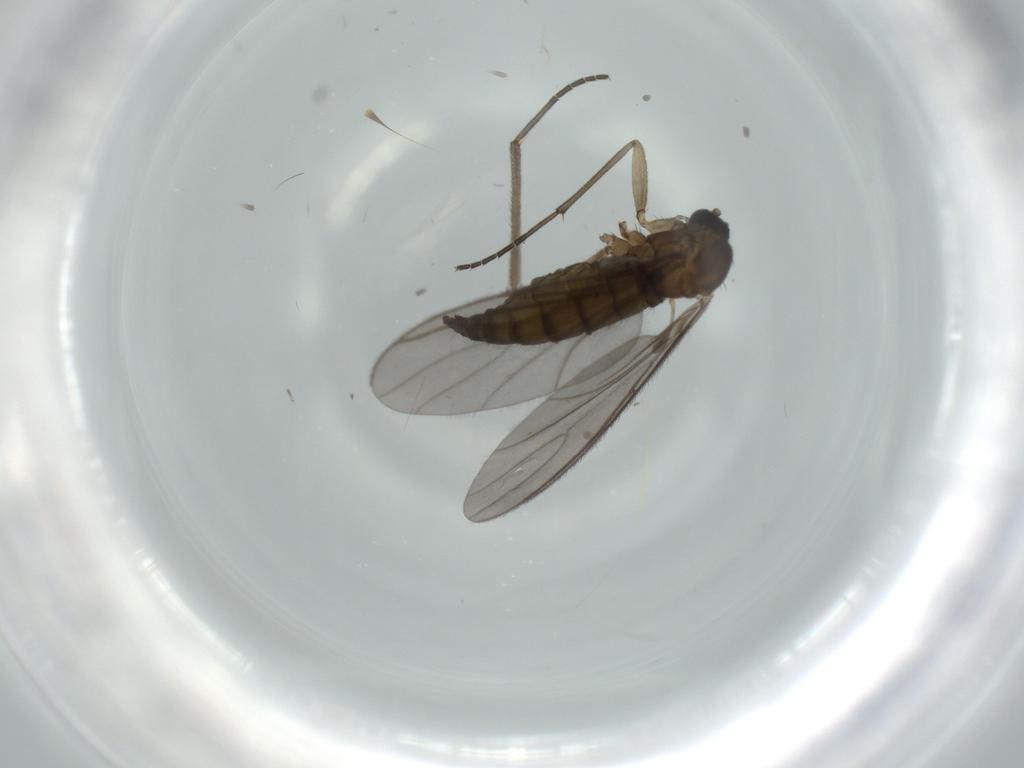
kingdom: Animalia
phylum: Arthropoda
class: Insecta
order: Diptera
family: Sciaridae
